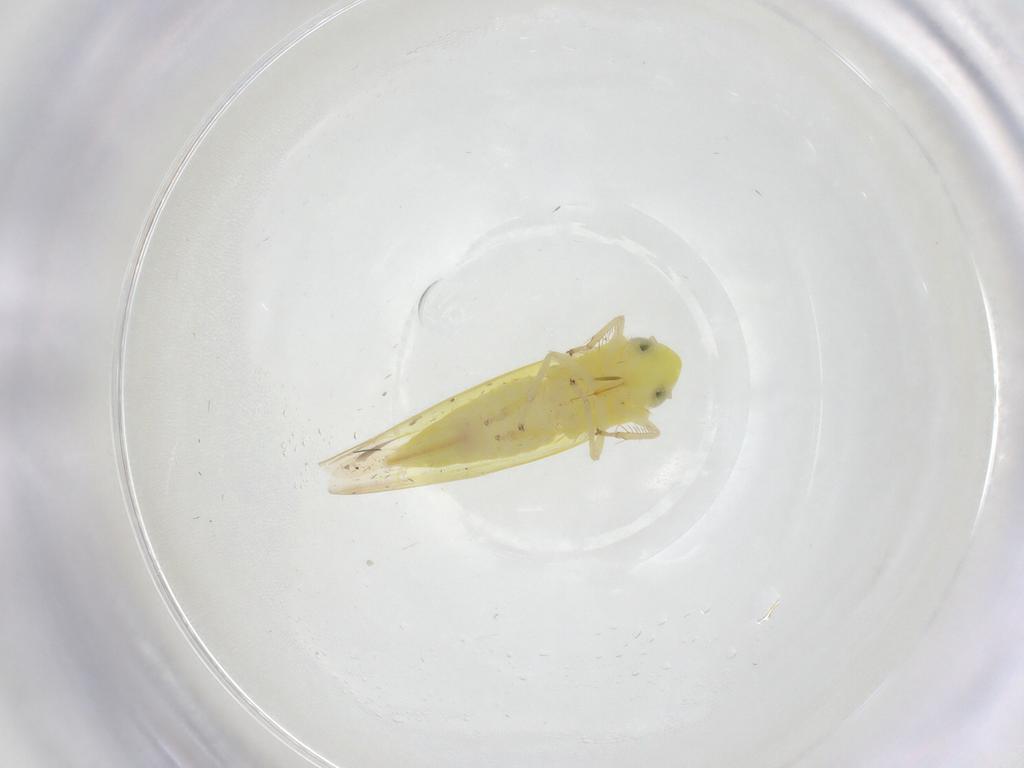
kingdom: Animalia
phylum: Arthropoda
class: Insecta
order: Hemiptera
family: Cicadellidae
